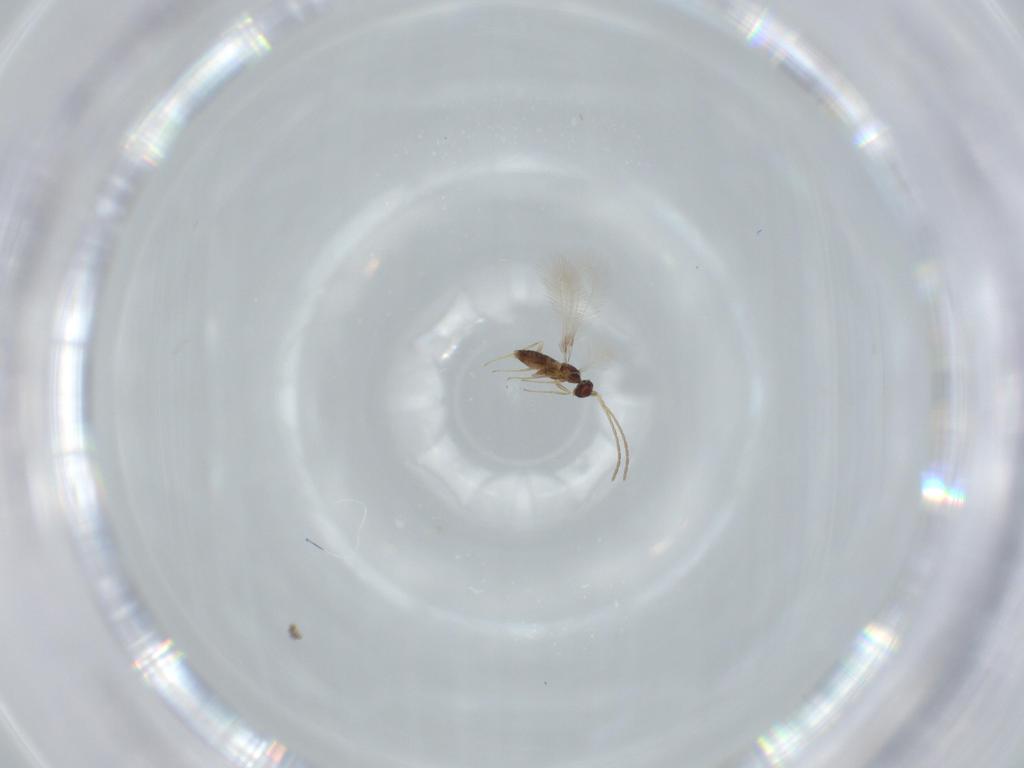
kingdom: Animalia
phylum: Arthropoda
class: Insecta
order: Hymenoptera
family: Mymaridae
